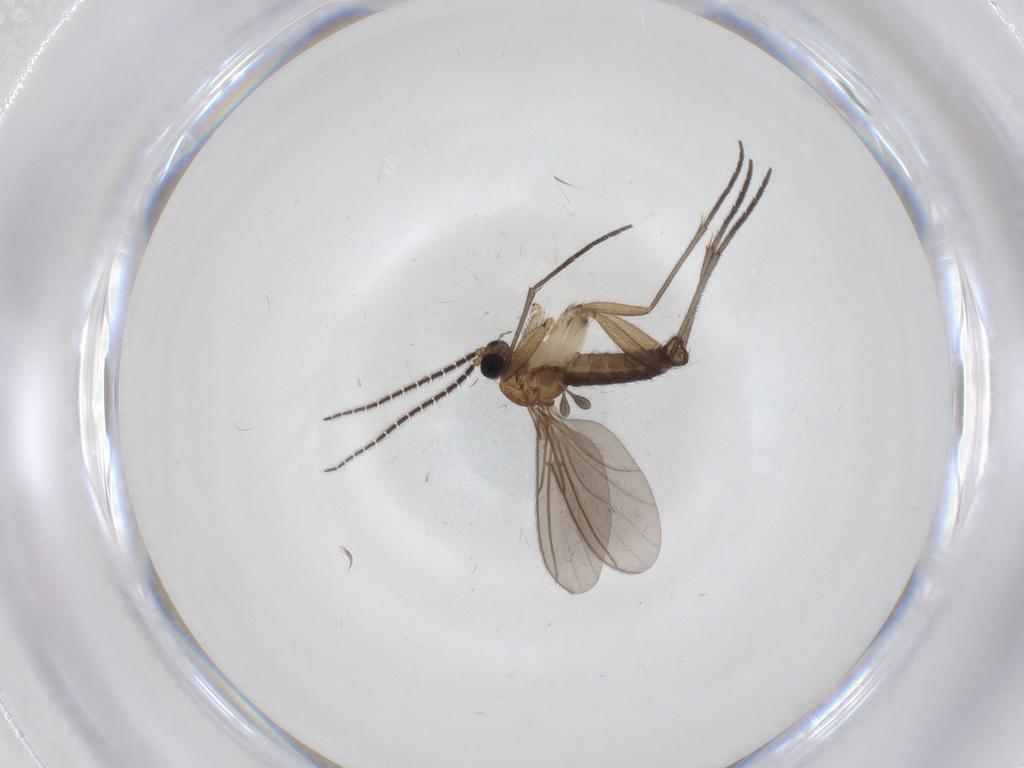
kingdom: Animalia
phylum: Arthropoda
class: Insecta
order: Diptera
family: Sciaridae
